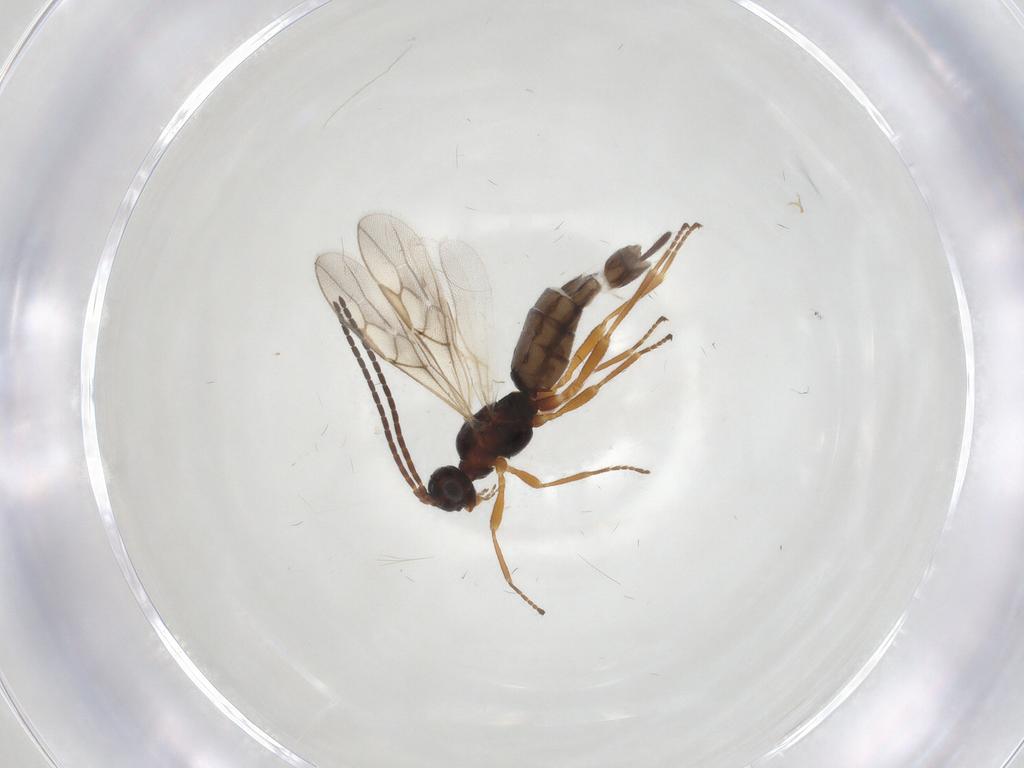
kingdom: Animalia
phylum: Arthropoda
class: Insecta
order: Hymenoptera
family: Braconidae
